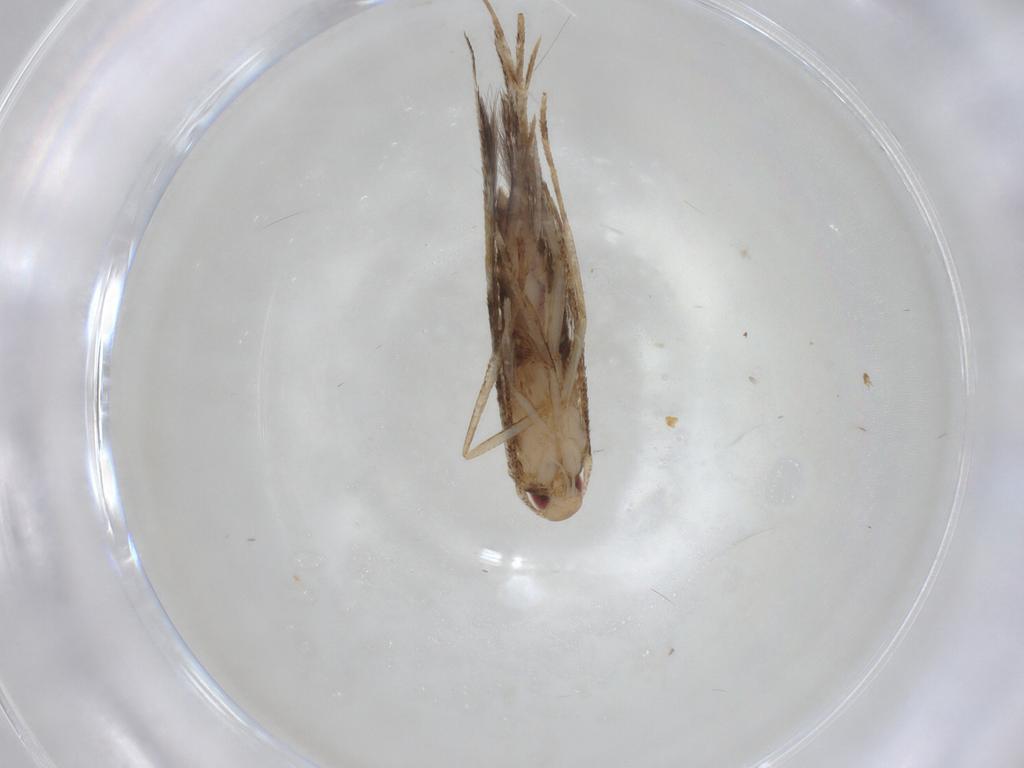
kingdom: Animalia
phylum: Arthropoda
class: Insecta
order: Lepidoptera
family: Cosmopterigidae
